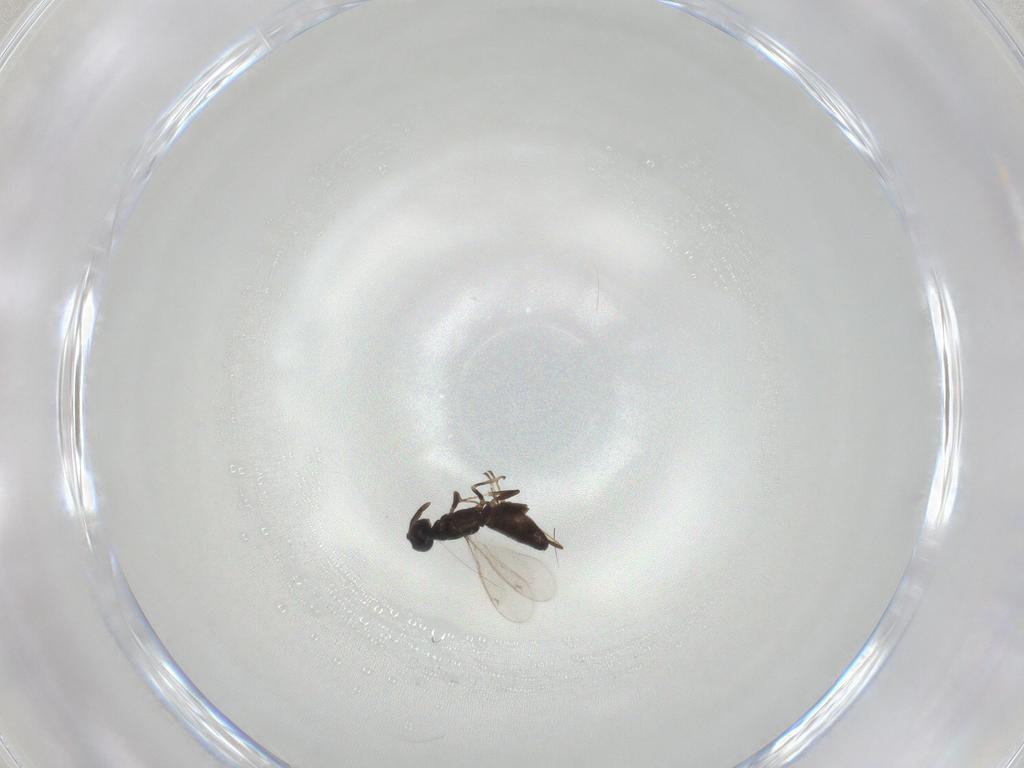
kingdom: Animalia
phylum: Arthropoda
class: Insecta
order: Hymenoptera
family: Eupelmidae
